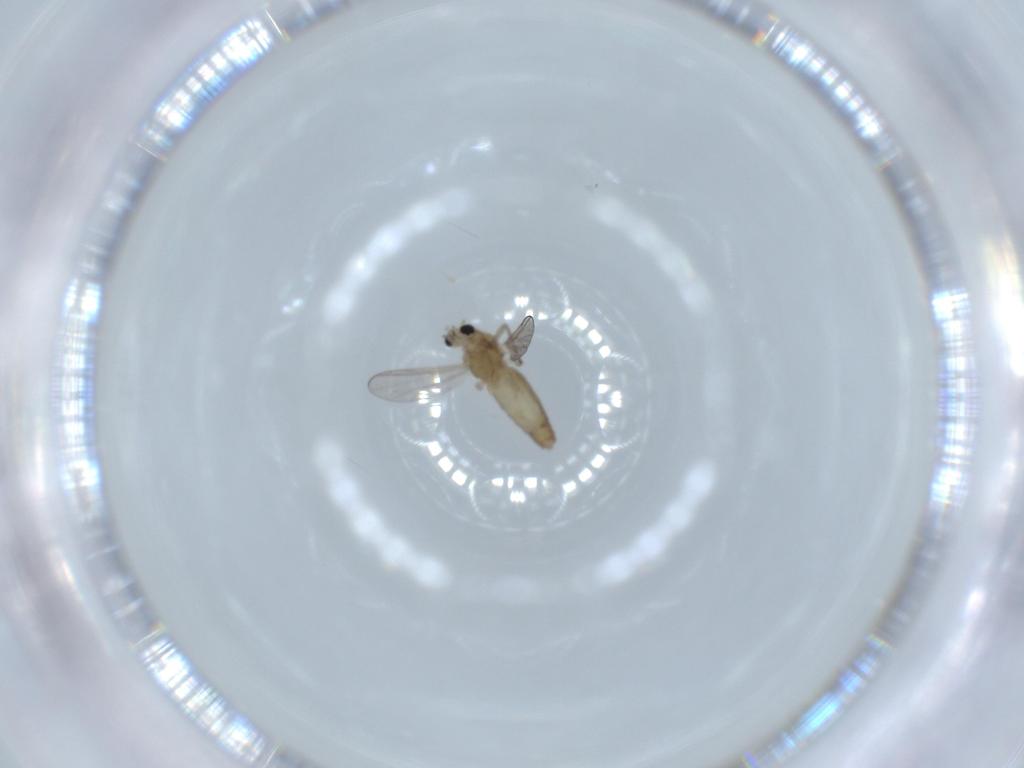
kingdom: Animalia
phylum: Arthropoda
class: Insecta
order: Diptera
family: Chironomidae
